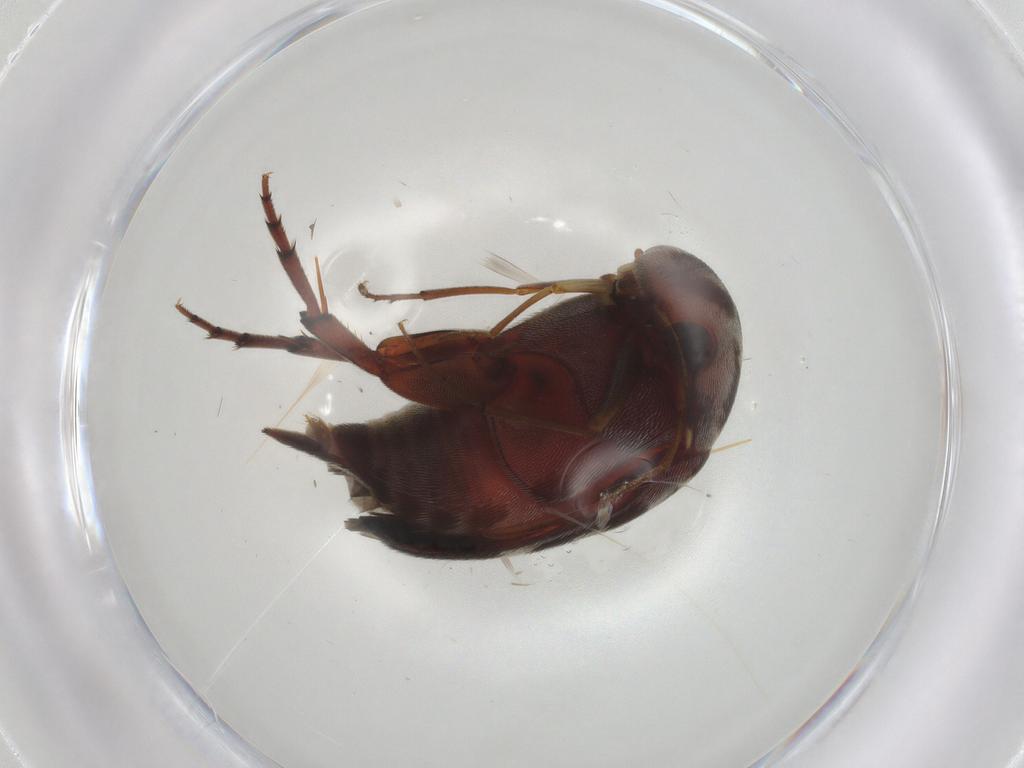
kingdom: Animalia
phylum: Arthropoda
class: Insecta
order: Coleoptera
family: Mordellidae
